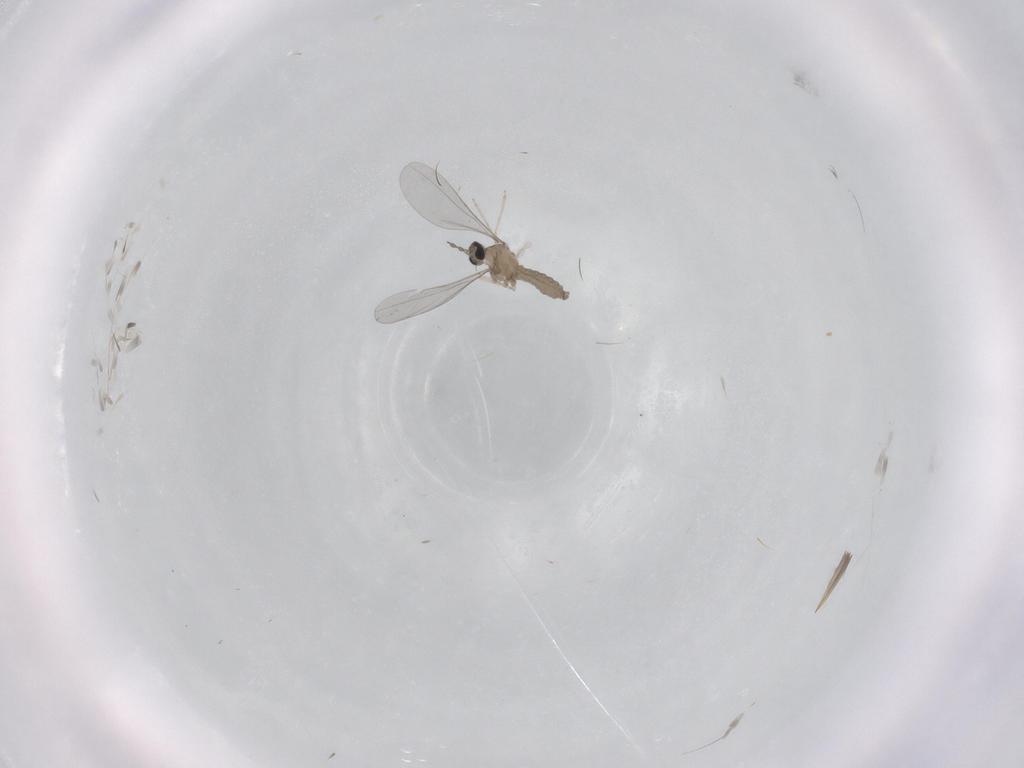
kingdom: Animalia
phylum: Arthropoda
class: Insecta
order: Diptera
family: Cecidomyiidae
